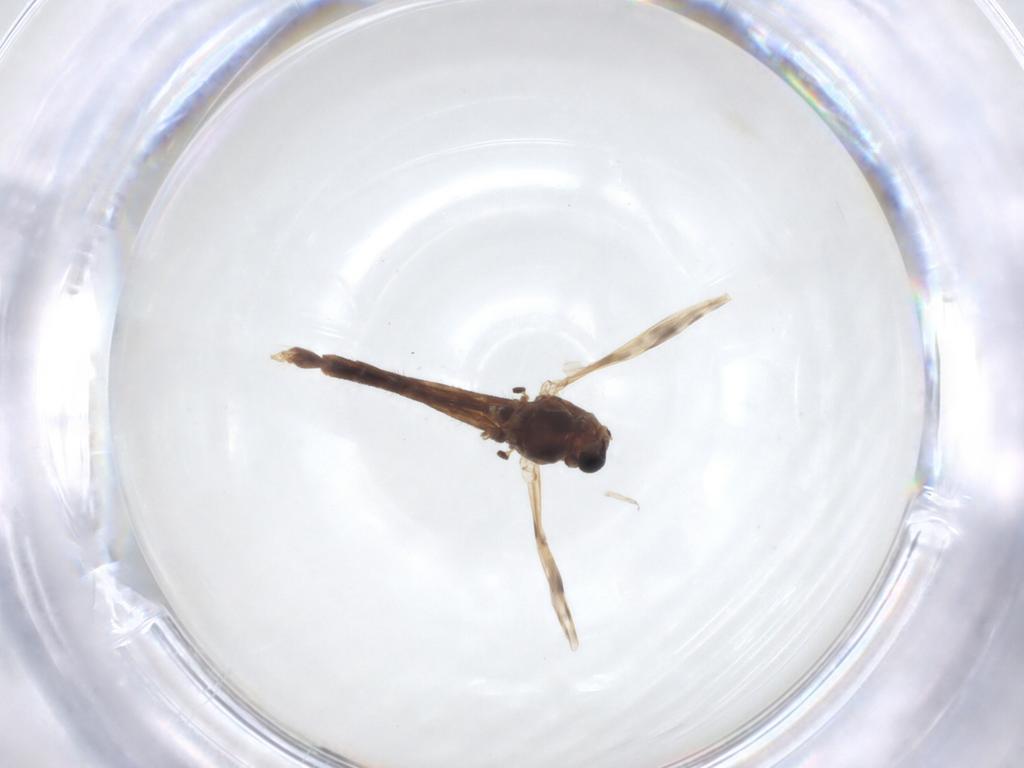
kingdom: Animalia
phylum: Arthropoda
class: Insecta
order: Diptera
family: Chironomidae
